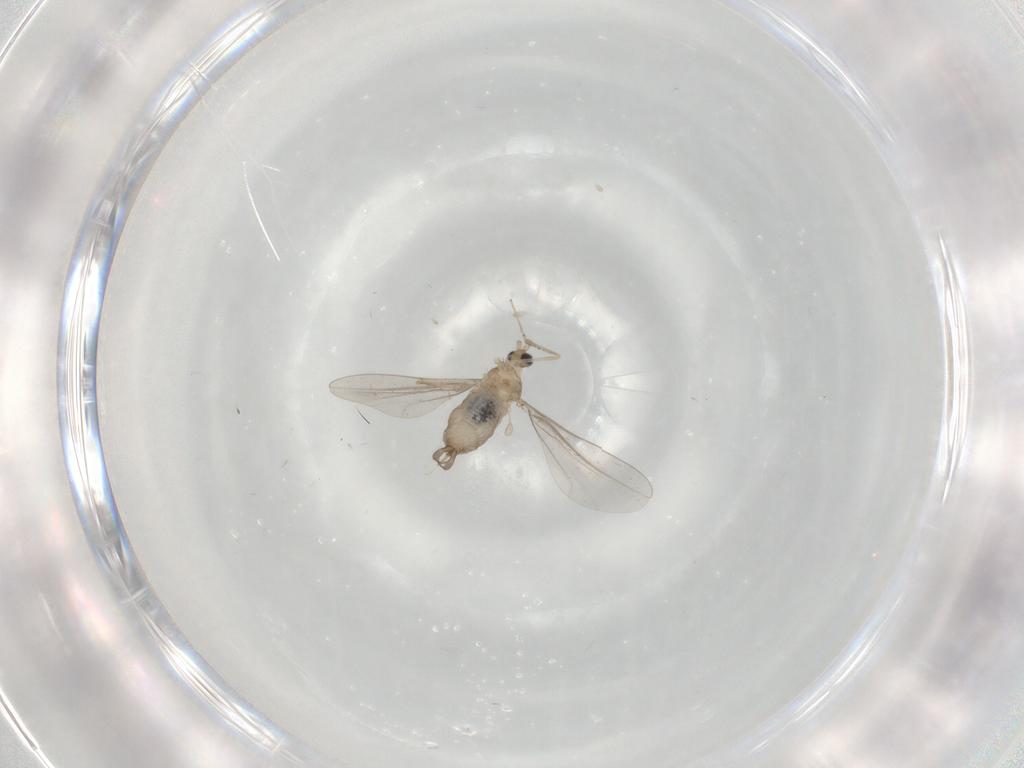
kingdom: Animalia
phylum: Arthropoda
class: Insecta
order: Diptera
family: Cecidomyiidae
